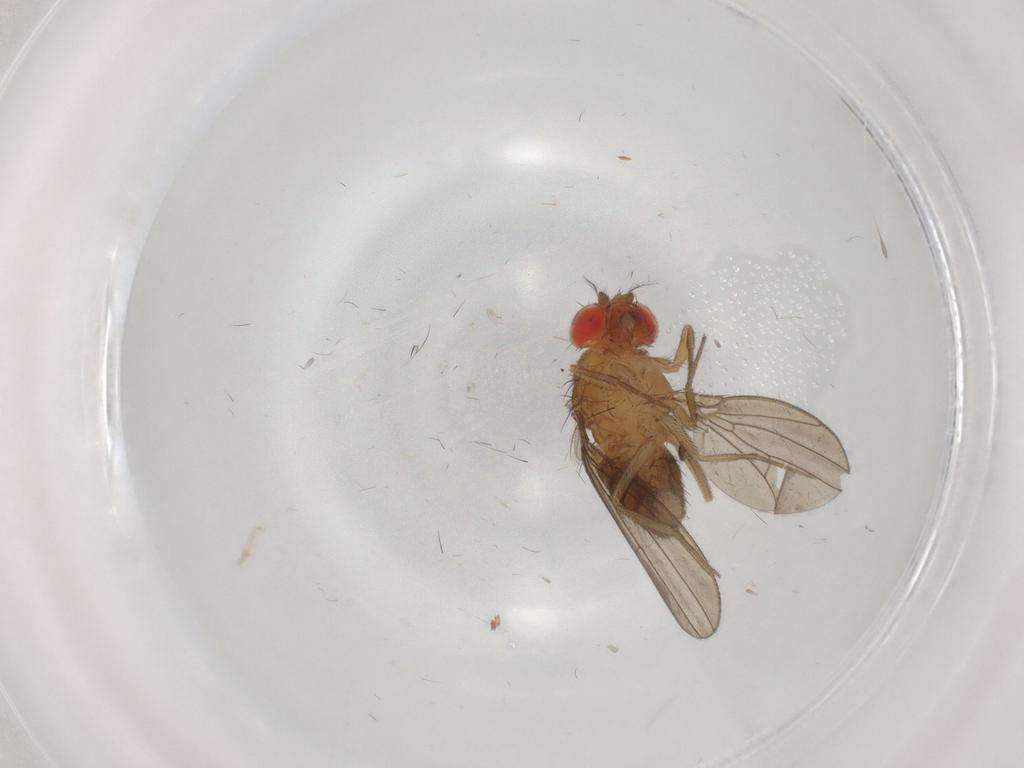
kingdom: Animalia
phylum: Arthropoda
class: Insecta
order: Diptera
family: Drosophilidae
